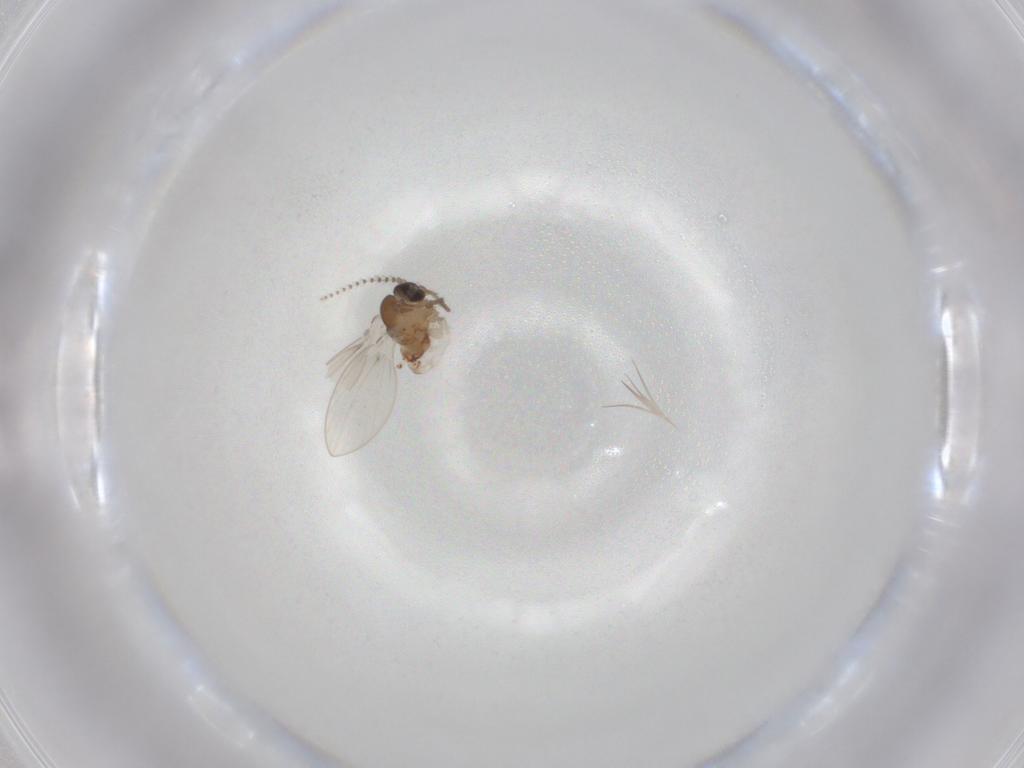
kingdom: Animalia
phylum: Arthropoda
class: Insecta
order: Diptera
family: Psychodidae
